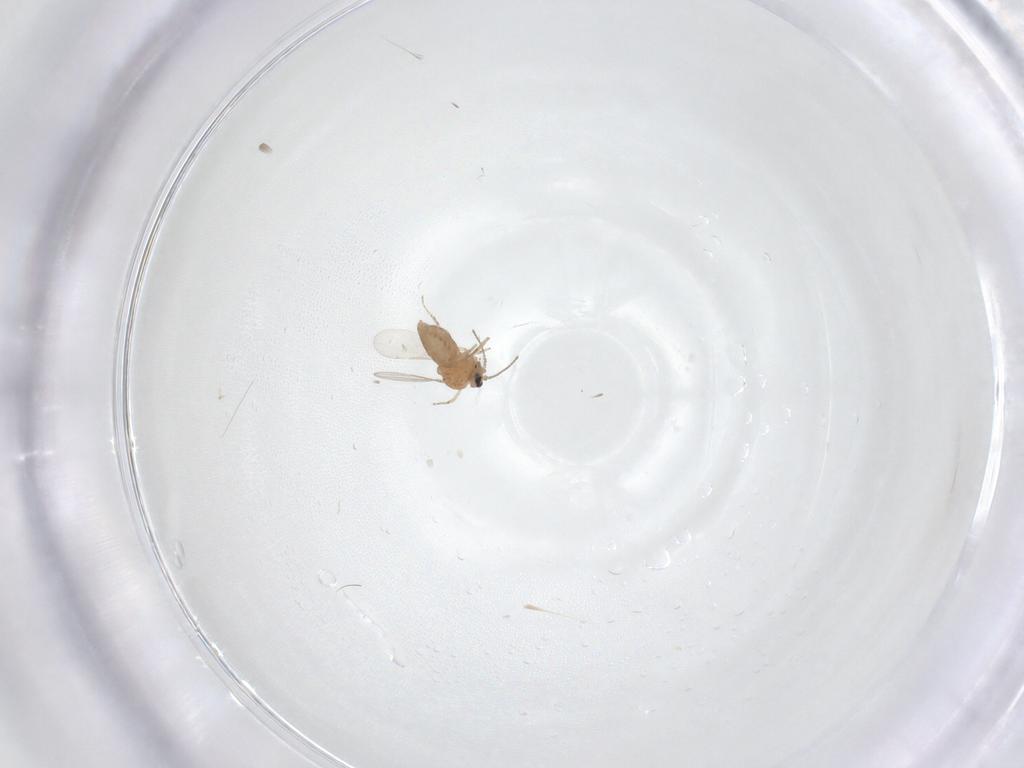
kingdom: Animalia
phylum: Arthropoda
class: Insecta
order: Diptera
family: Ceratopogonidae
